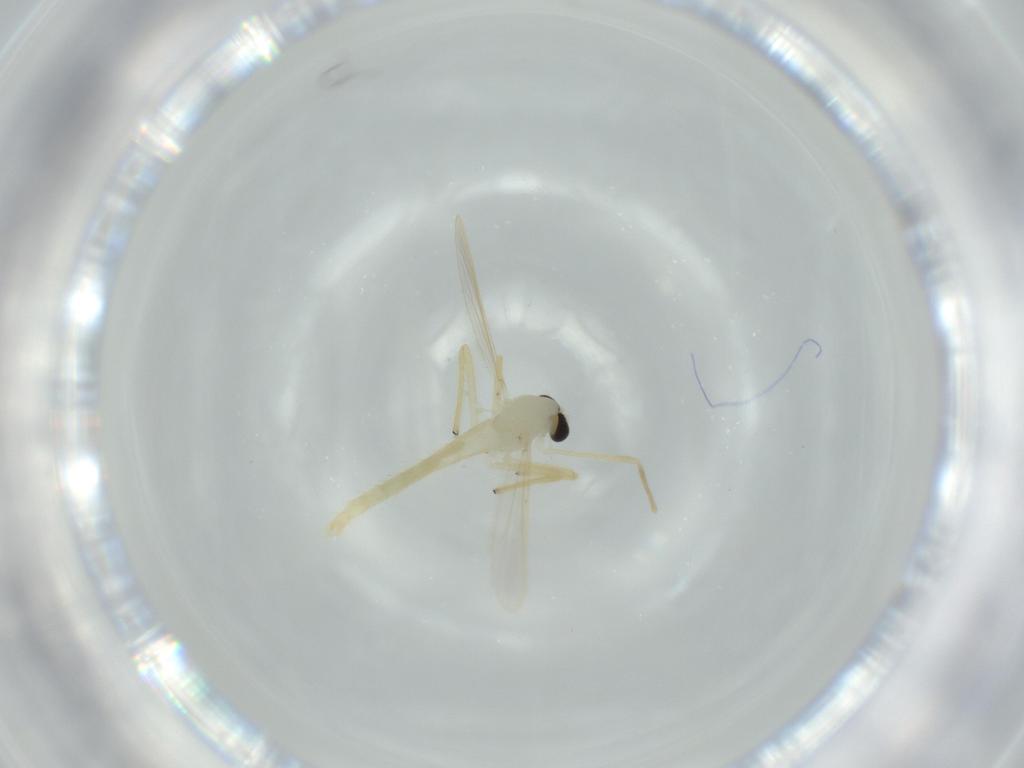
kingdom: Animalia
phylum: Arthropoda
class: Insecta
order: Diptera
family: Chironomidae
